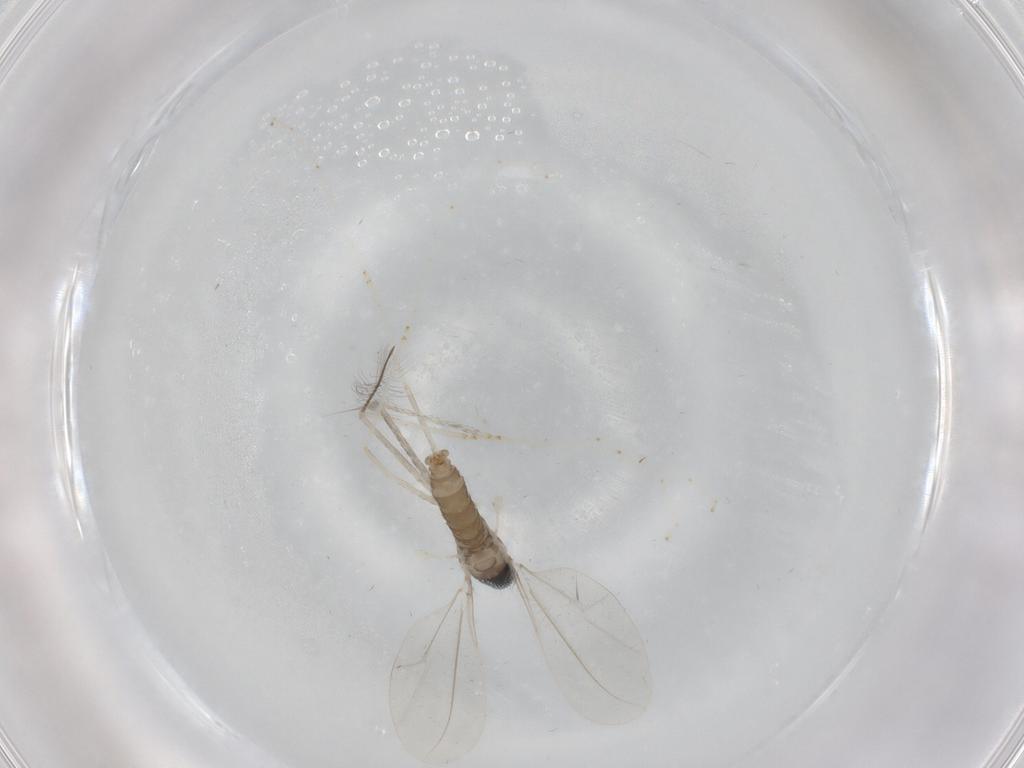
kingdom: Animalia
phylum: Arthropoda
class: Insecta
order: Diptera
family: Cecidomyiidae
